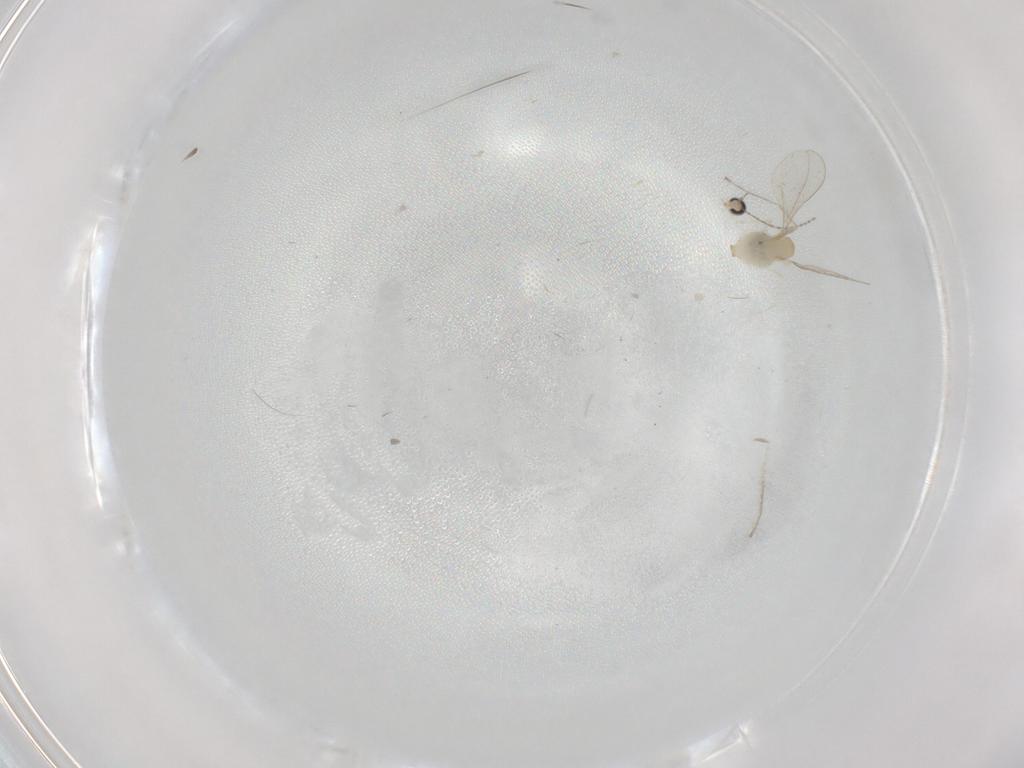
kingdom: Animalia
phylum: Arthropoda
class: Insecta
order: Diptera
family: Cecidomyiidae
